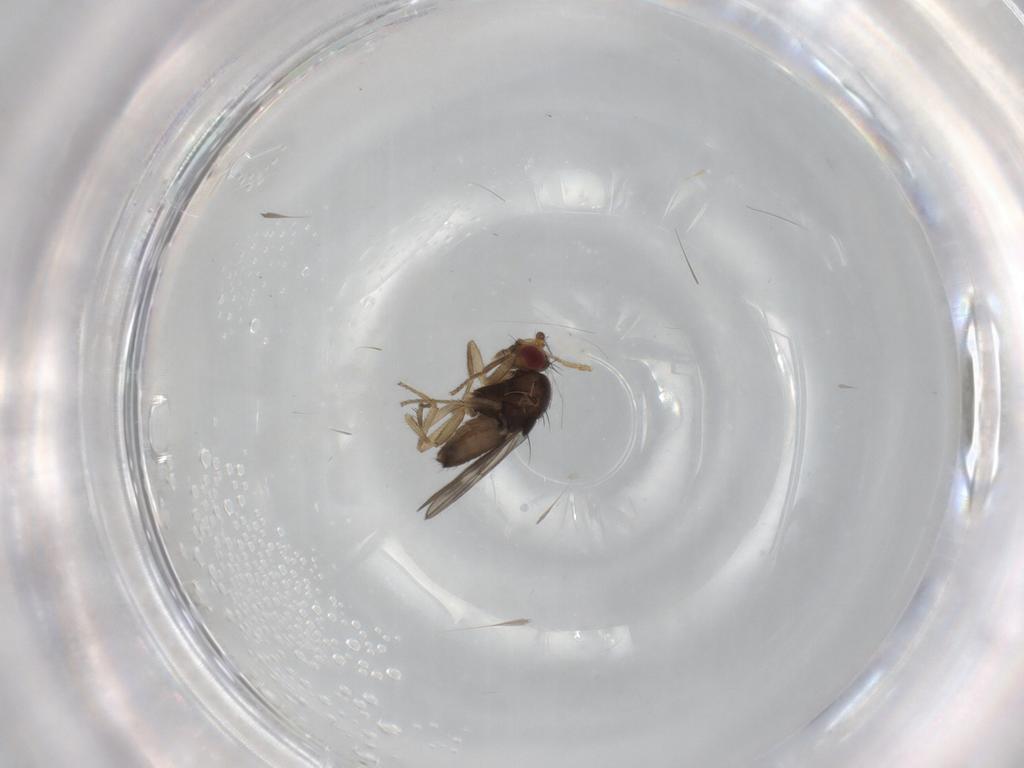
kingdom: Animalia
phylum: Arthropoda
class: Insecta
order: Diptera
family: Sphaeroceridae
